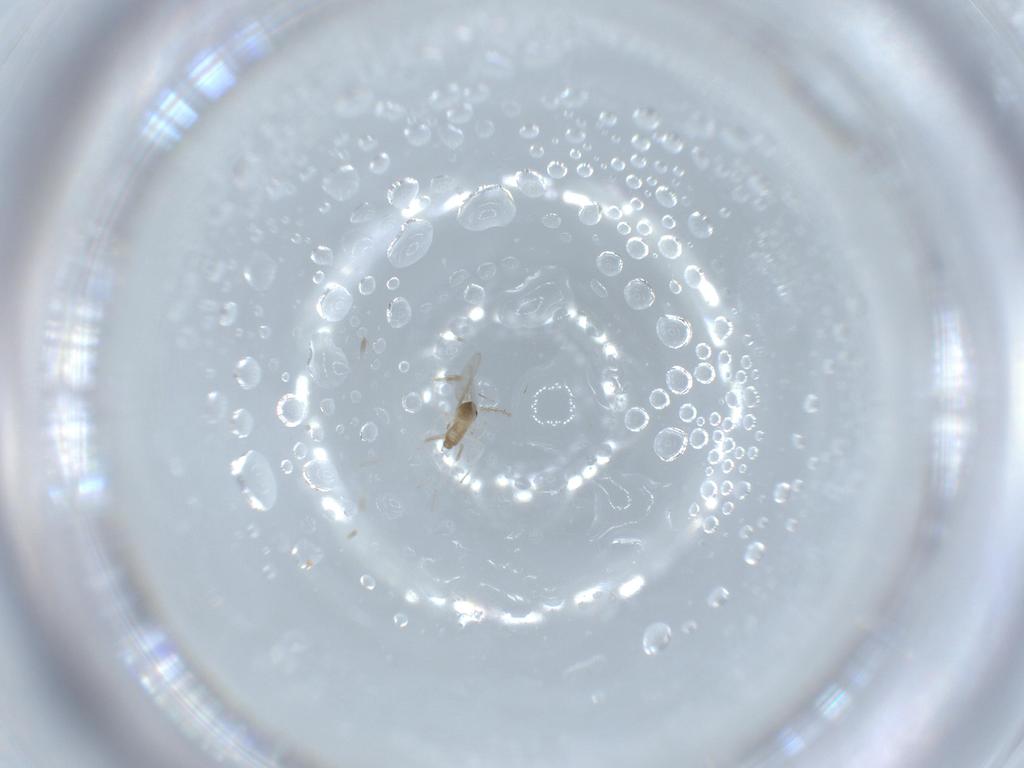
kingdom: Animalia
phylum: Arthropoda
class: Insecta
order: Diptera
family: Cecidomyiidae
